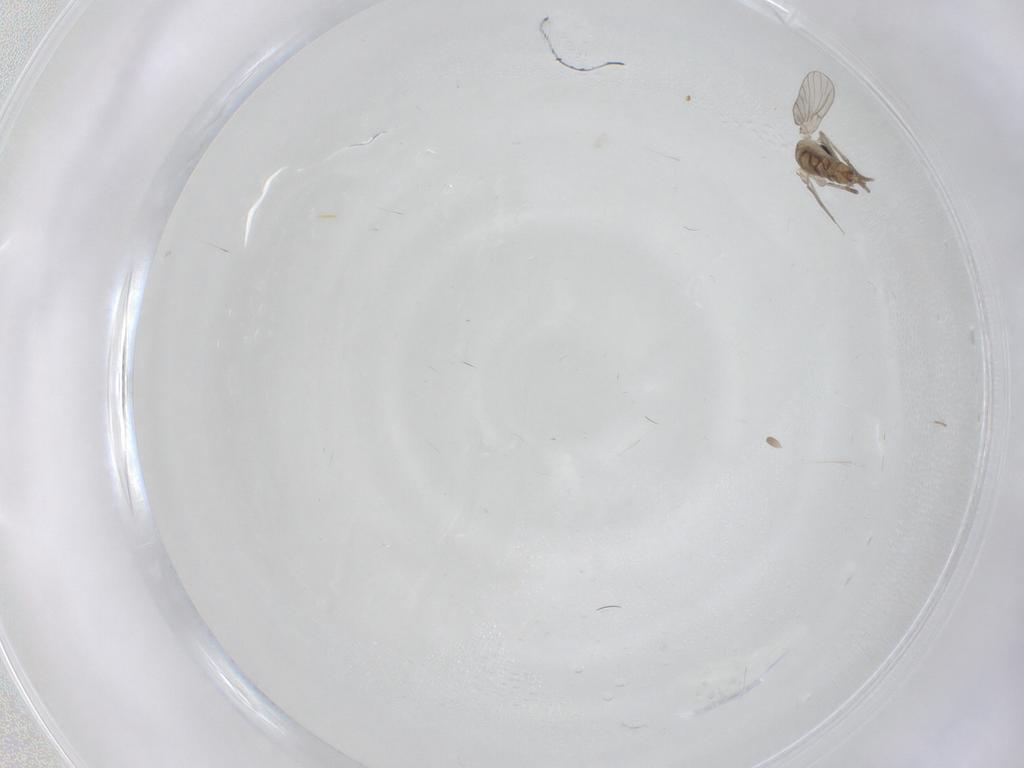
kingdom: Animalia
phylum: Arthropoda
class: Insecta
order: Diptera
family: Chironomidae
